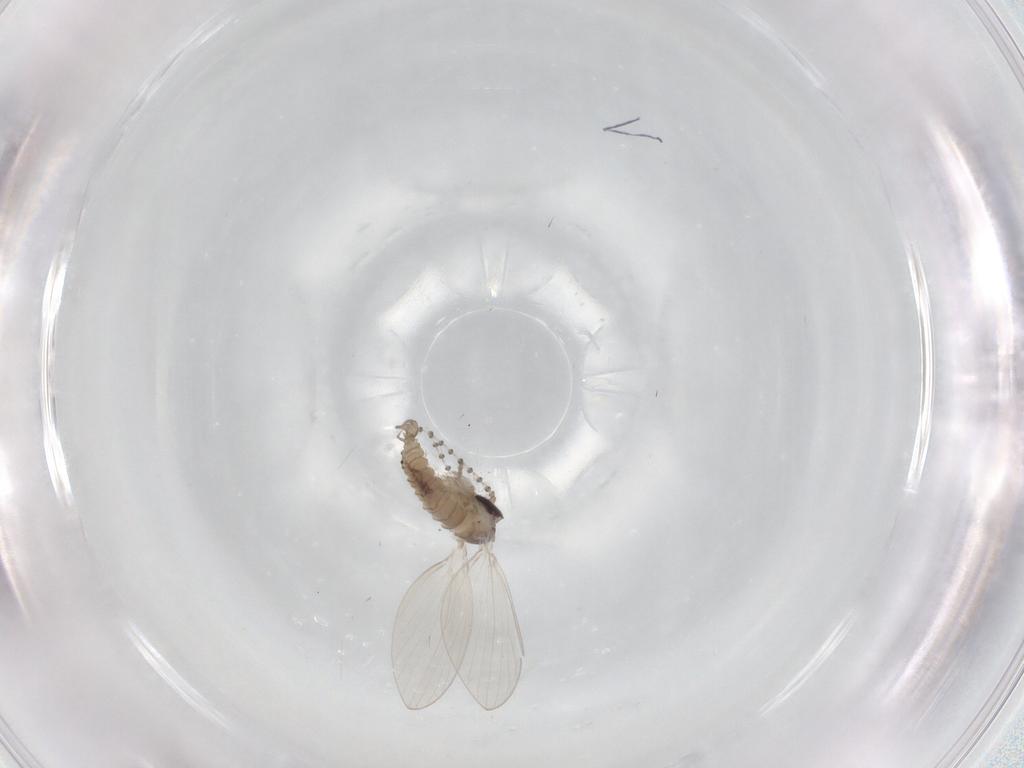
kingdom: Animalia
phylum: Arthropoda
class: Insecta
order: Diptera
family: Chironomidae
